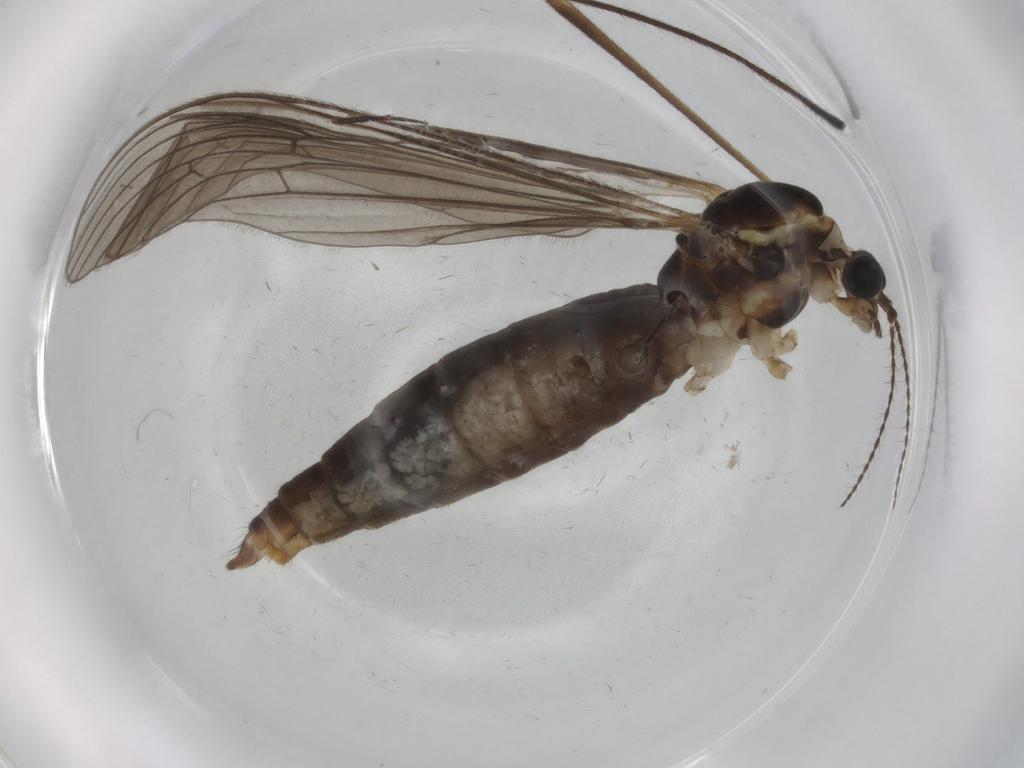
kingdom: Animalia
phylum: Arthropoda
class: Insecta
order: Diptera
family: Limoniidae
